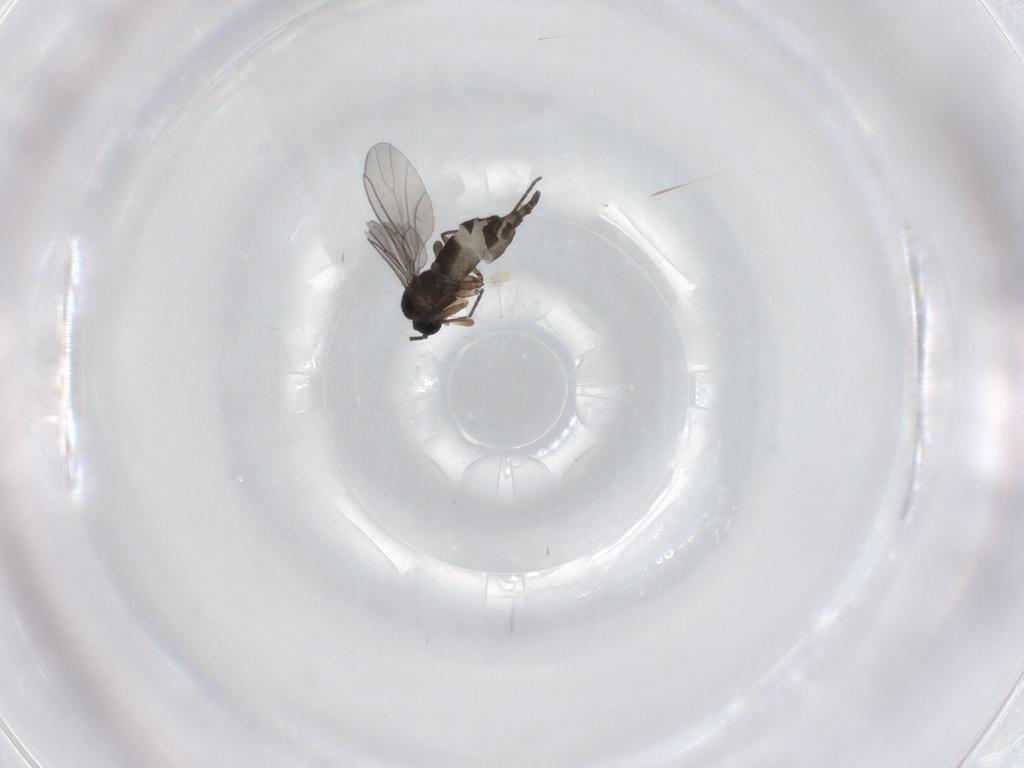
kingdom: Animalia
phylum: Arthropoda
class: Insecta
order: Diptera
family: Sciaridae
